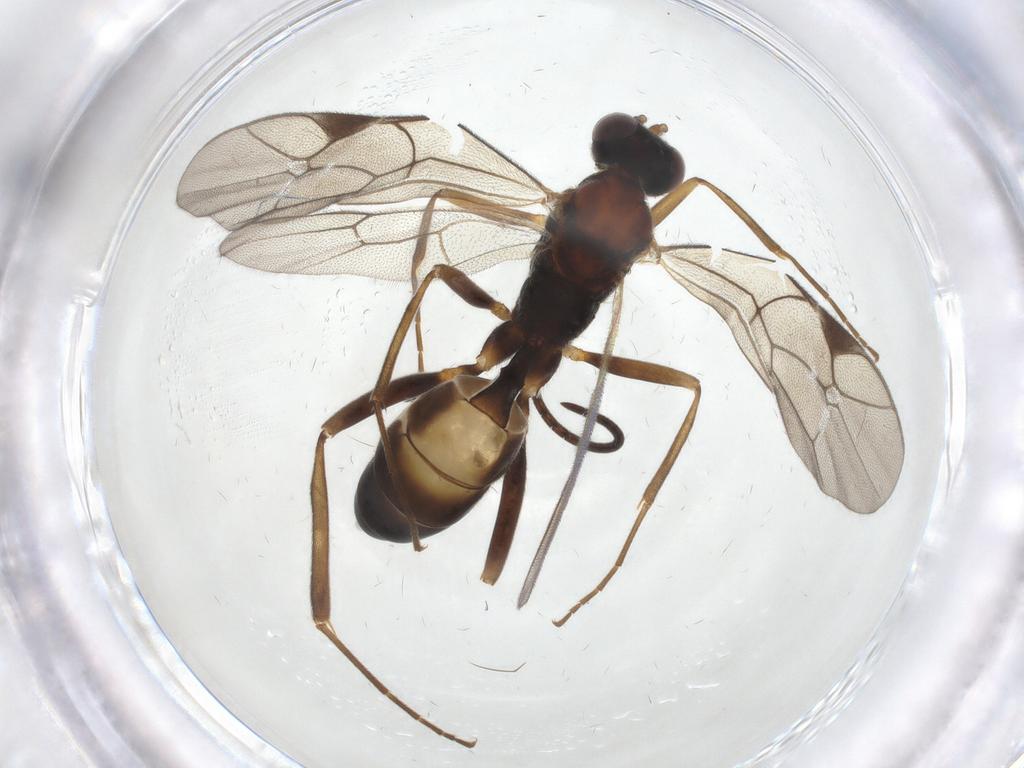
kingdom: Animalia
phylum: Arthropoda
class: Insecta
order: Hymenoptera
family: Ichneumonidae
